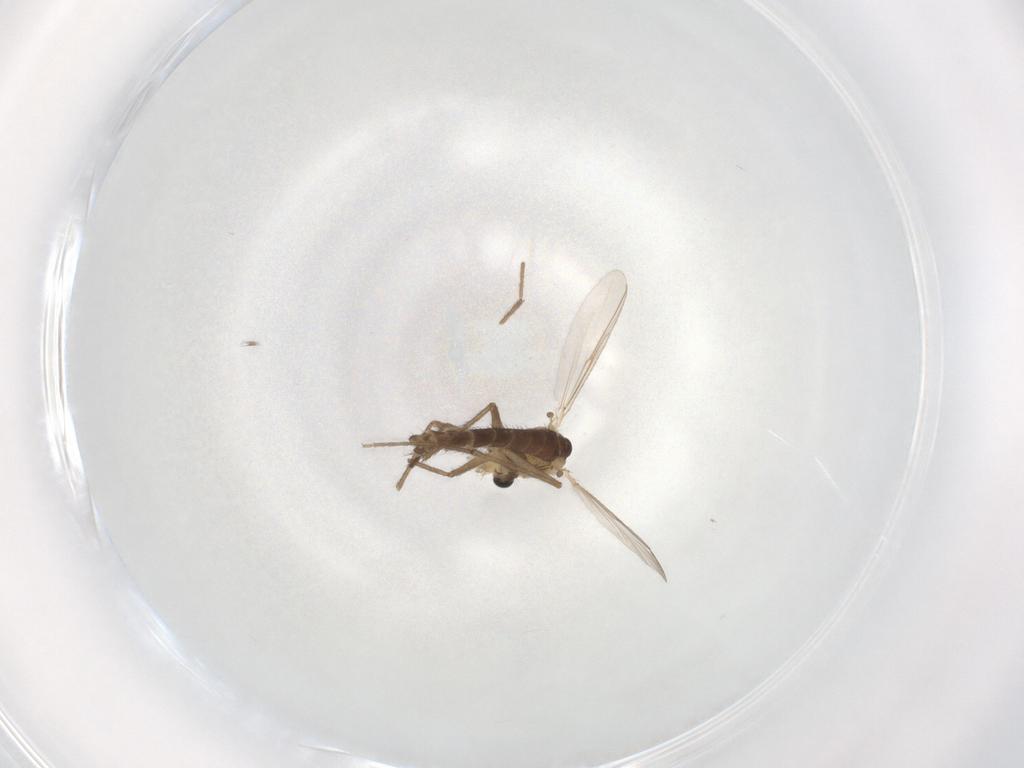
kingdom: Animalia
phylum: Arthropoda
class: Insecta
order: Diptera
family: Chironomidae
